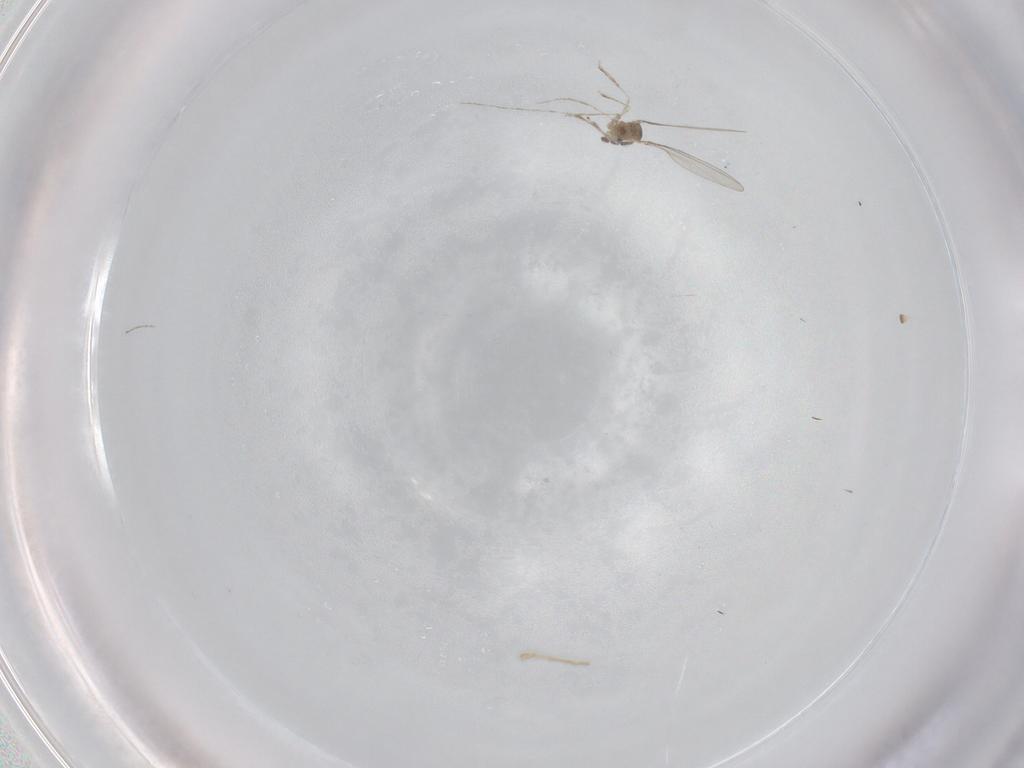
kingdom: Animalia
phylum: Arthropoda
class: Insecta
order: Diptera
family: Cecidomyiidae
